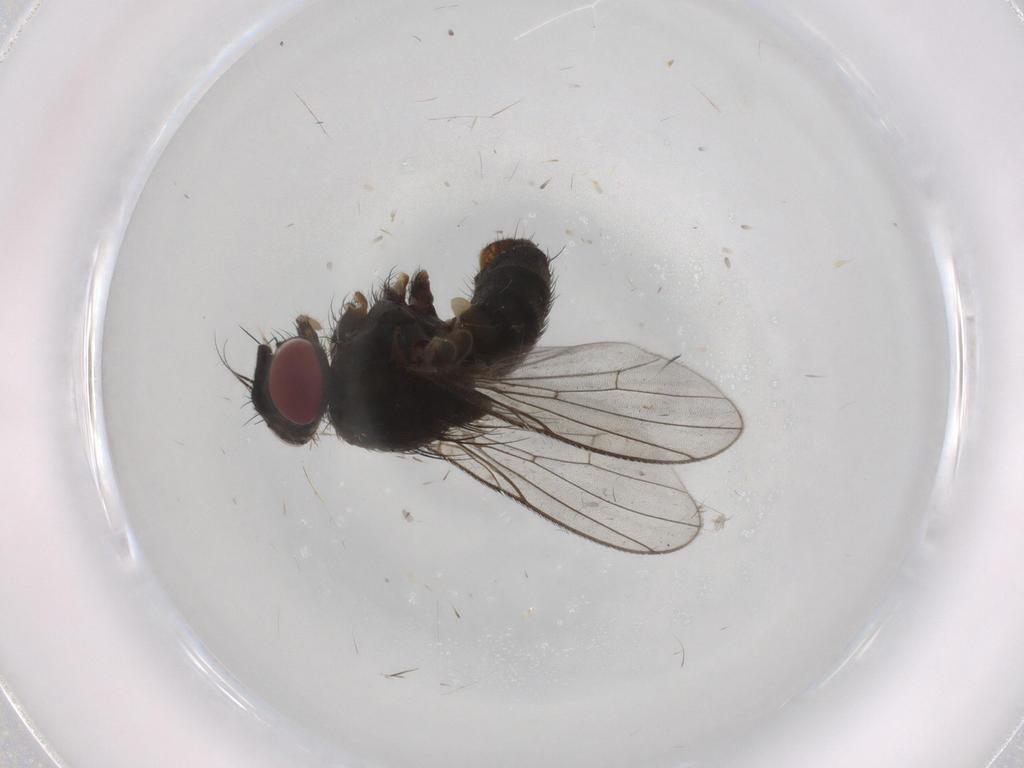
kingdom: Animalia
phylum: Arthropoda
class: Insecta
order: Diptera
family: Muscidae
